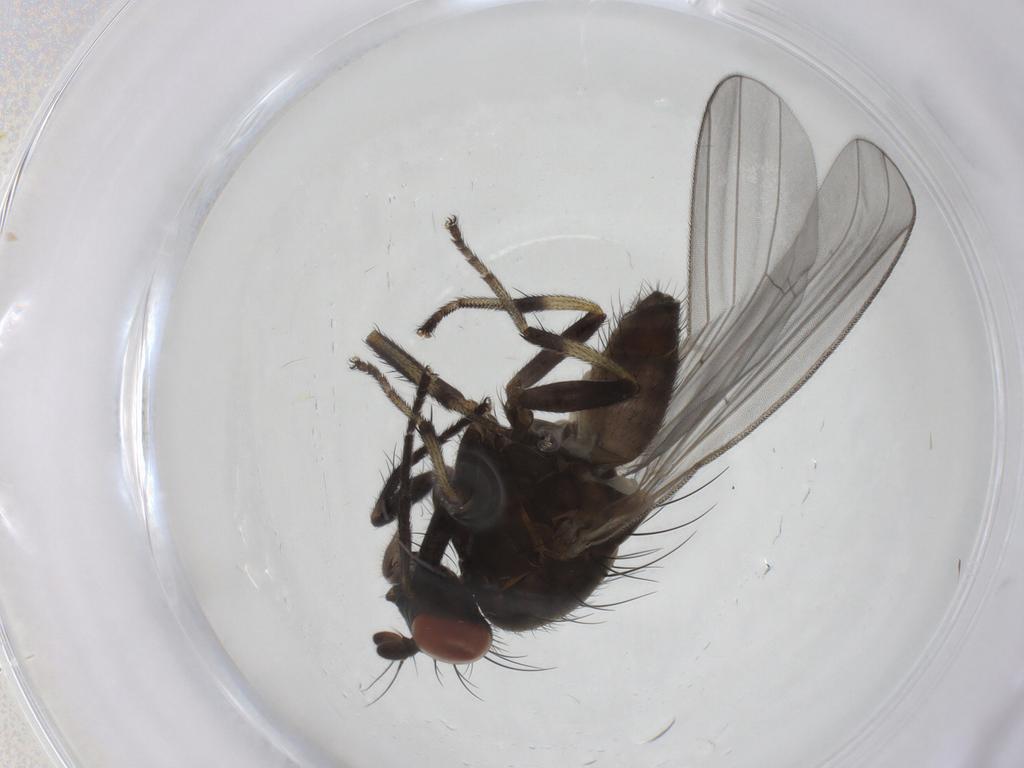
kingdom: Animalia
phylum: Arthropoda
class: Insecta
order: Diptera
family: Lauxaniidae
